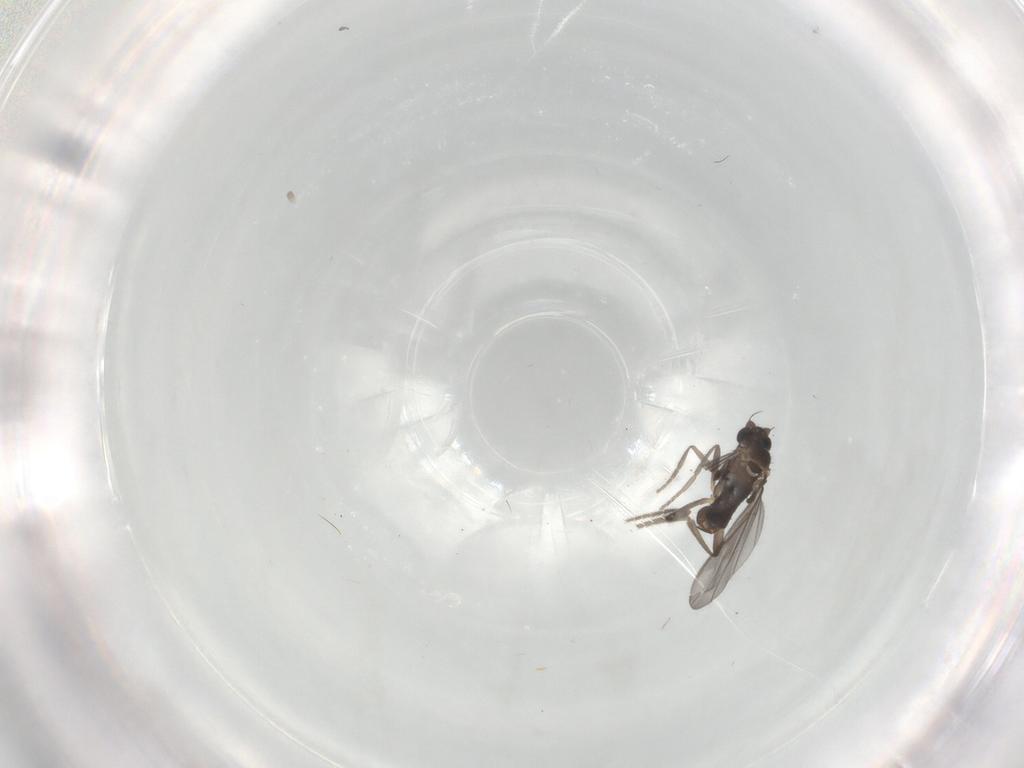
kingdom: Animalia
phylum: Arthropoda
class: Insecta
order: Diptera
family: Phoridae
